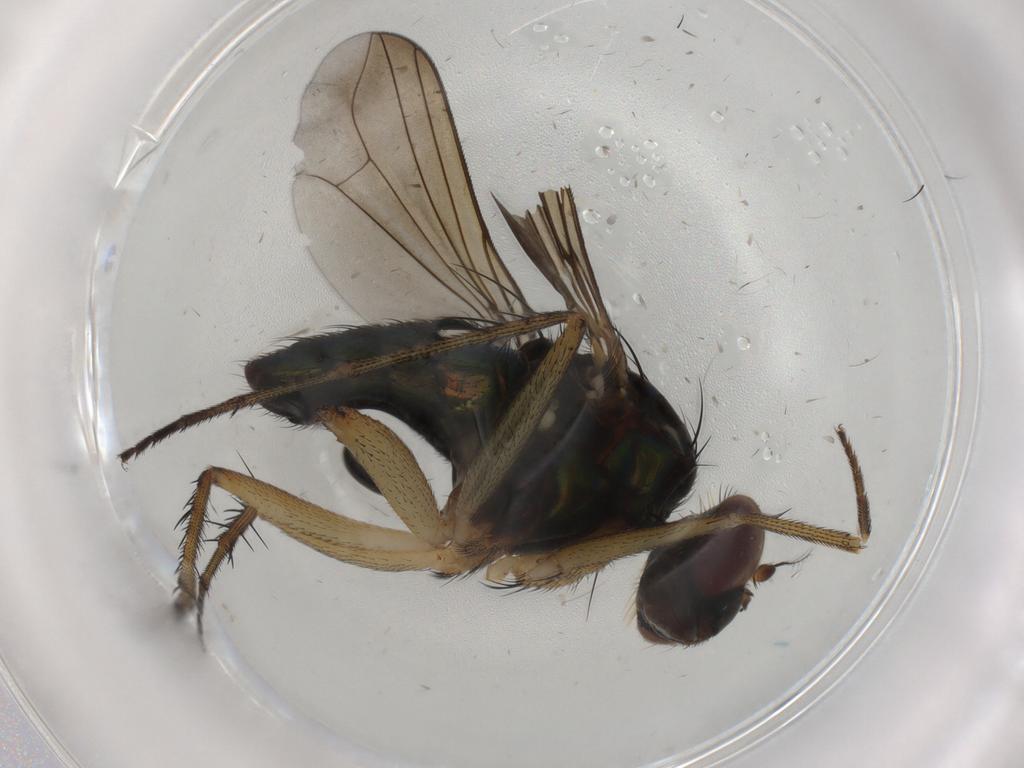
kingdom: Animalia
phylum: Arthropoda
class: Insecta
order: Diptera
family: Dolichopodidae
